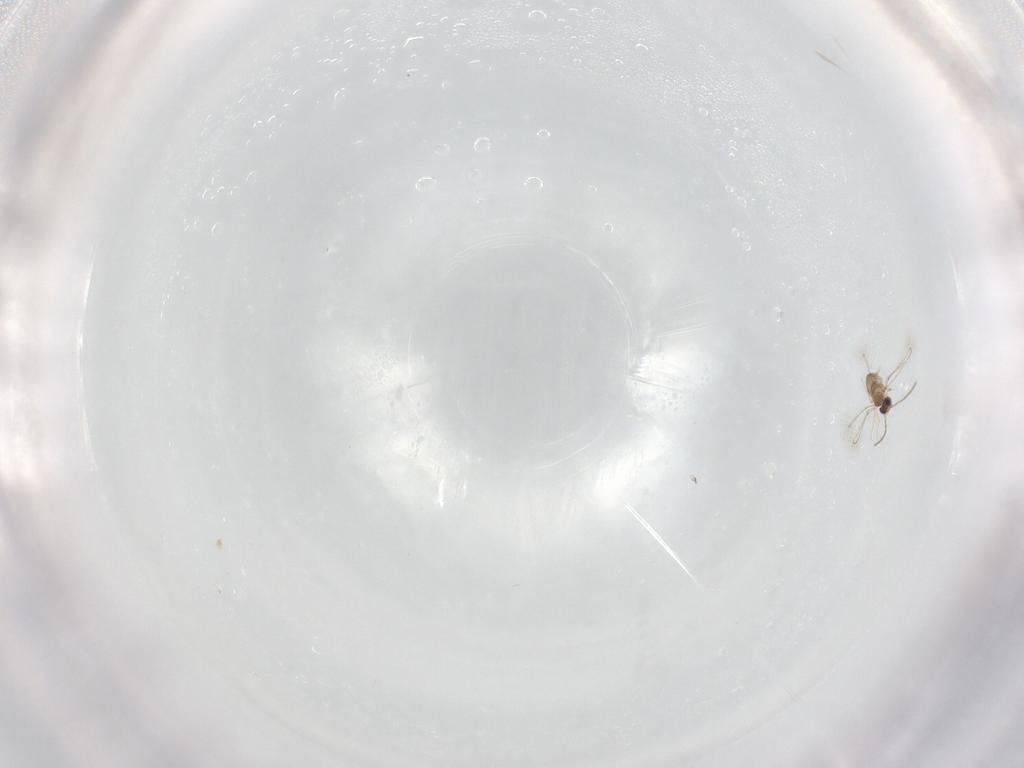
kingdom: Animalia
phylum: Arthropoda
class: Insecta
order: Hymenoptera
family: Mymaridae
